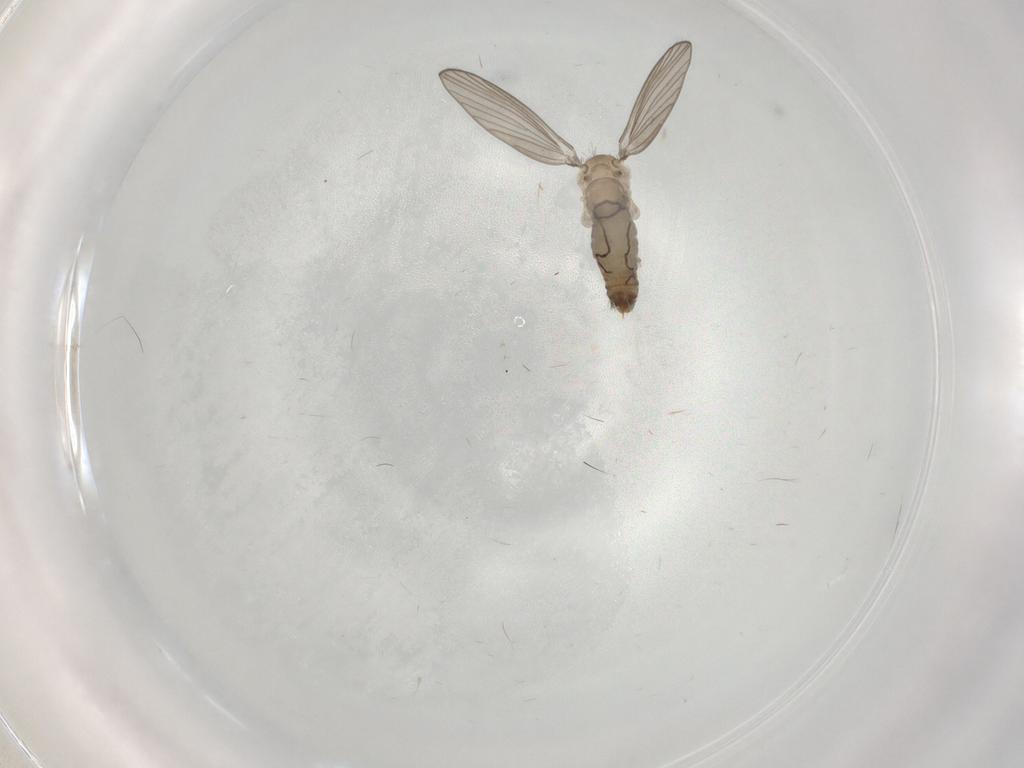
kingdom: Animalia
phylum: Arthropoda
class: Insecta
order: Diptera
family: Psychodidae
